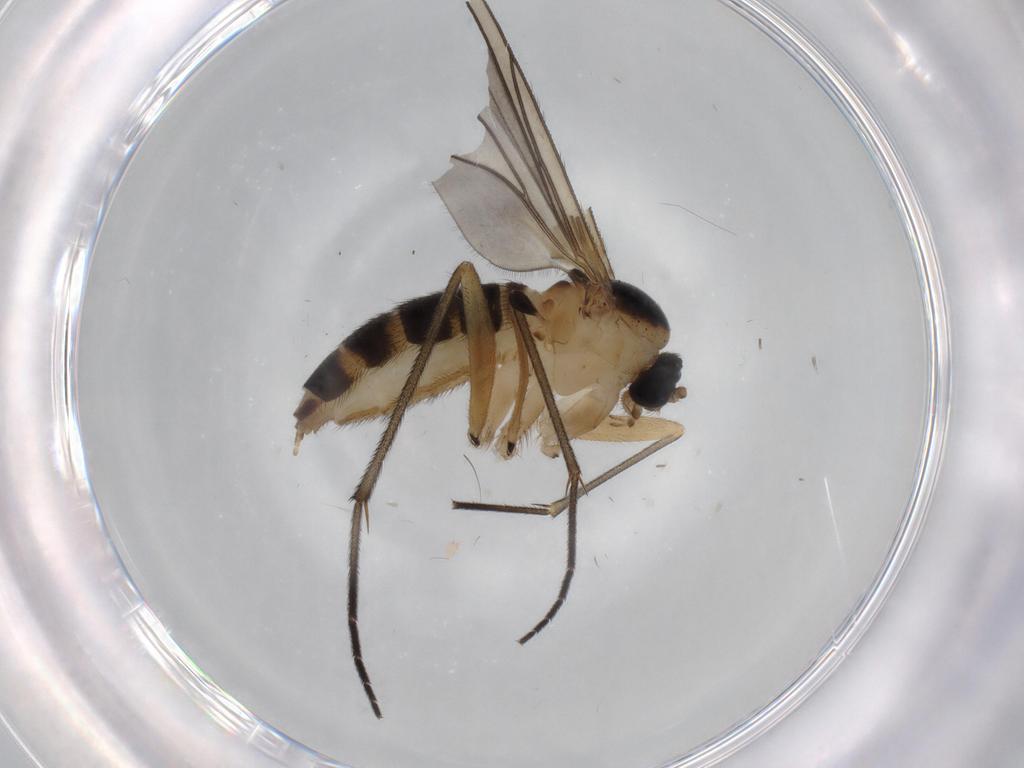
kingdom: Animalia
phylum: Arthropoda
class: Insecta
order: Diptera
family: Sciaridae
